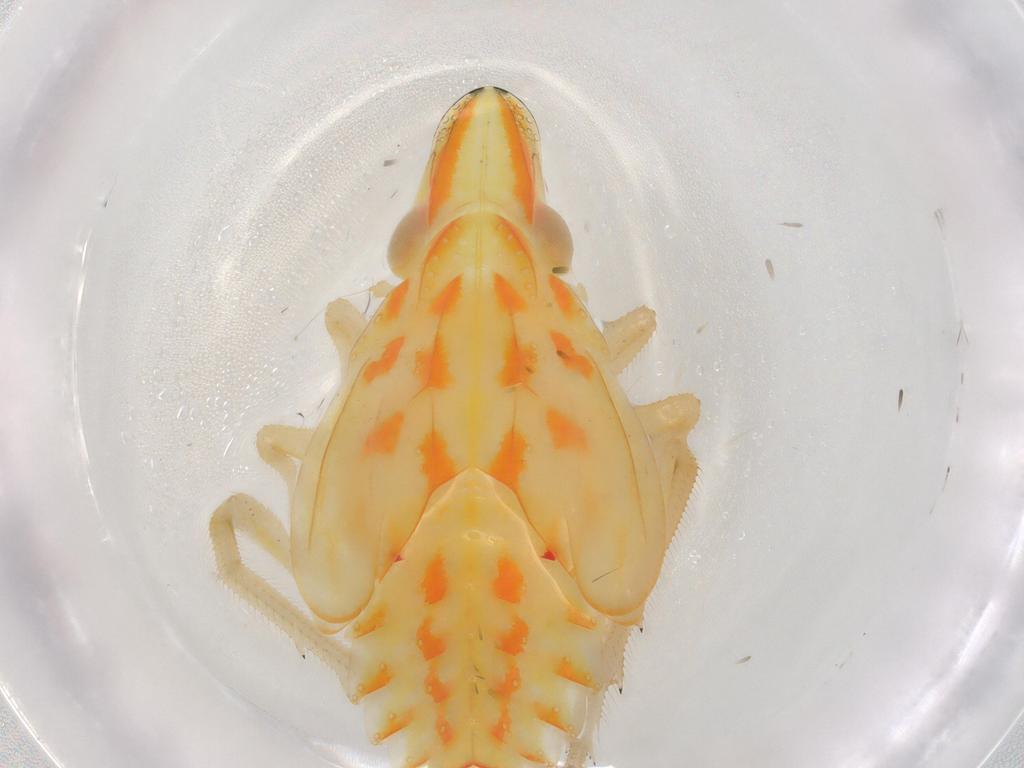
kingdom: Animalia
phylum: Arthropoda
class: Insecta
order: Hemiptera
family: Tropiduchidae
